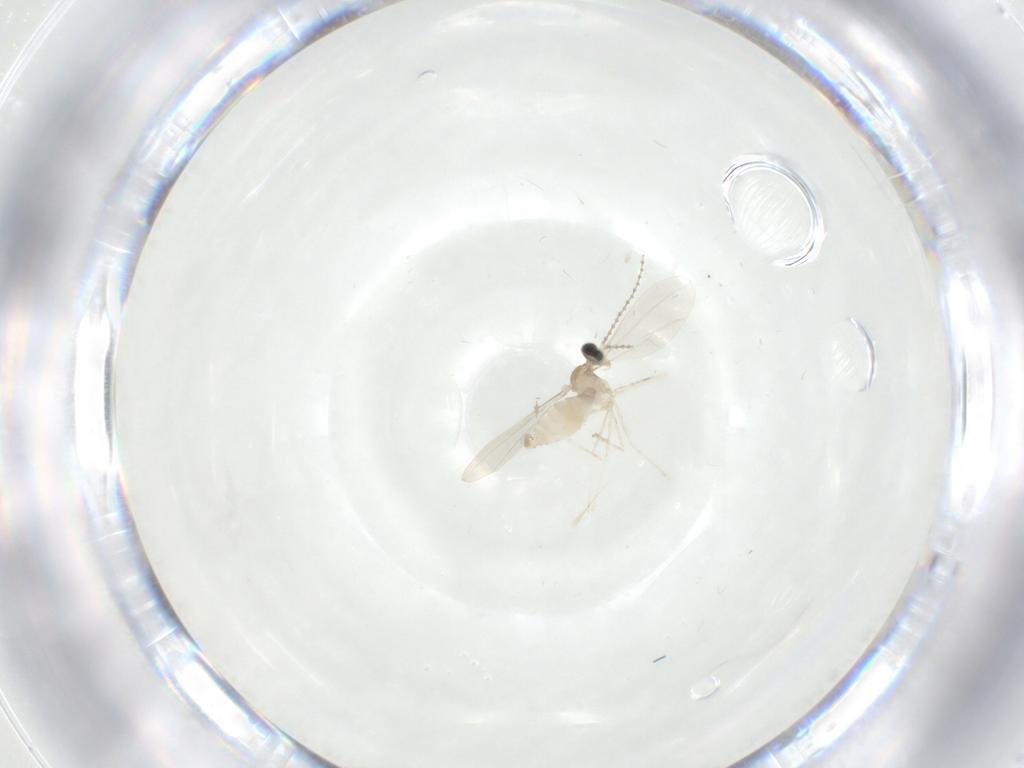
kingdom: Animalia
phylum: Arthropoda
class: Insecta
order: Diptera
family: Cecidomyiidae
